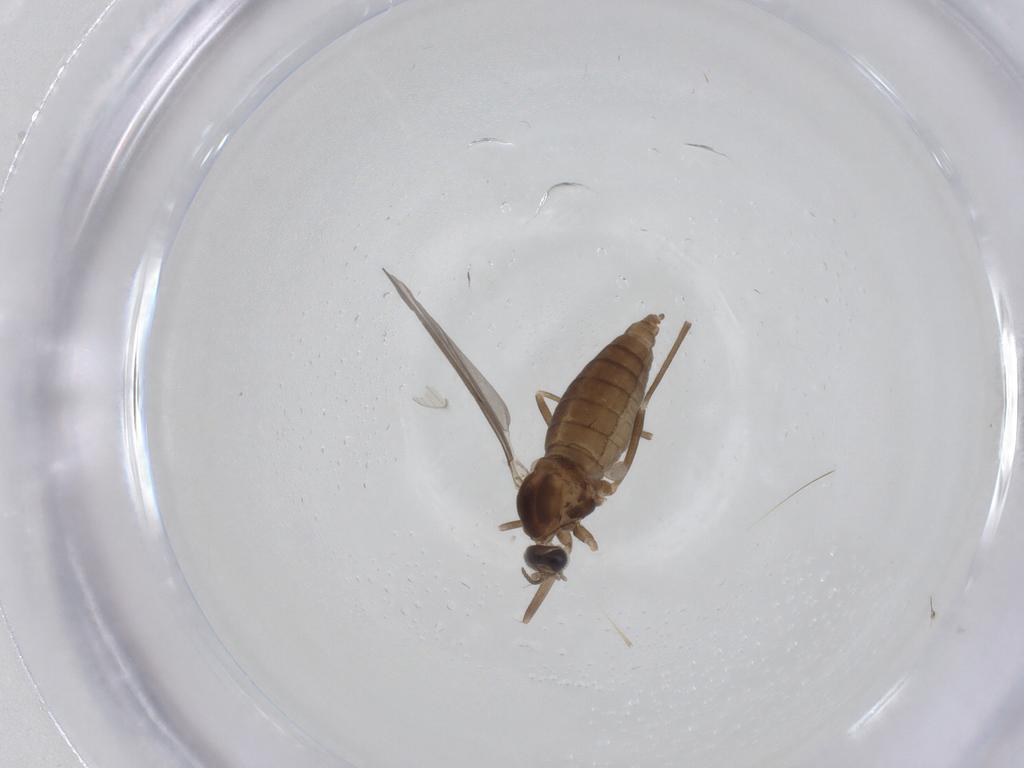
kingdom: Animalia
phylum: Arthropoda
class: Insecta
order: Diptera
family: Cecidomyiidae
